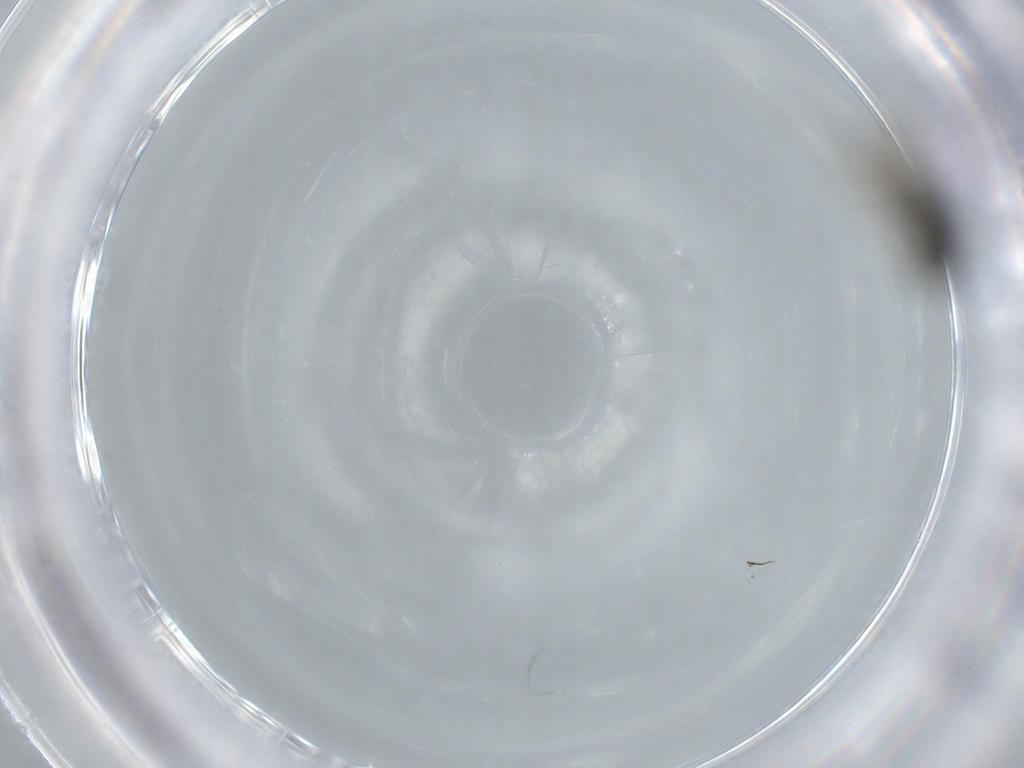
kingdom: Animalia
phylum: Arthropoda
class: Insecta
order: Diptera
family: Phoridae
